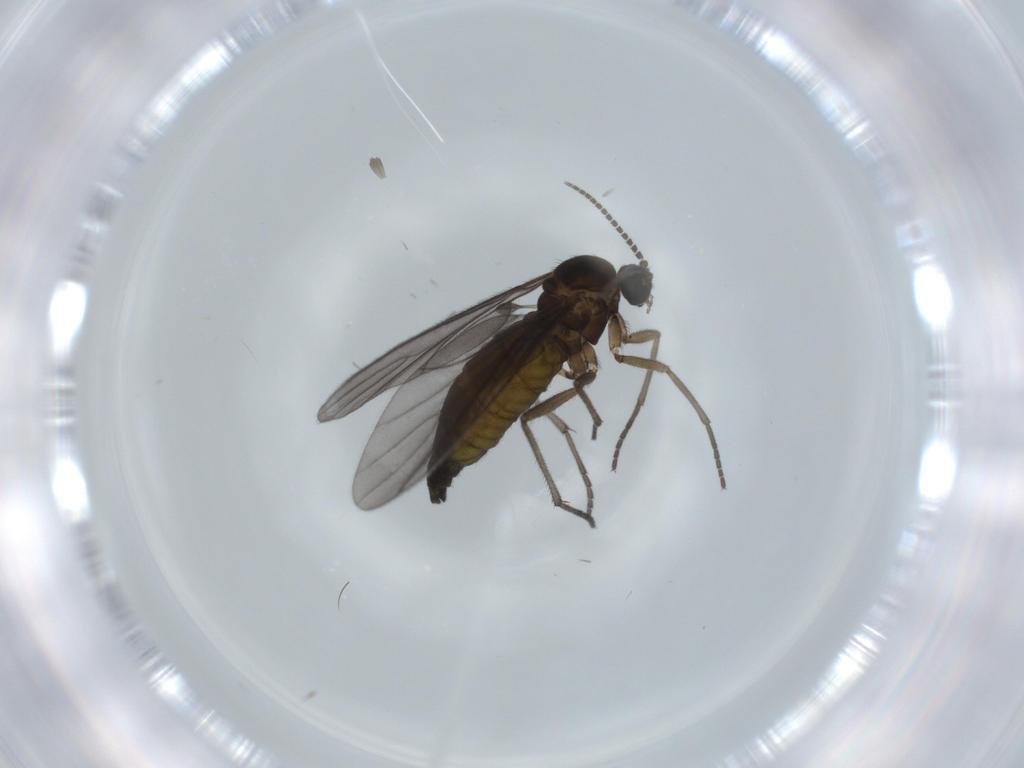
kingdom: Animalia
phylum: Arthropoda
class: Insecta
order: Diptera
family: Sciaridae
